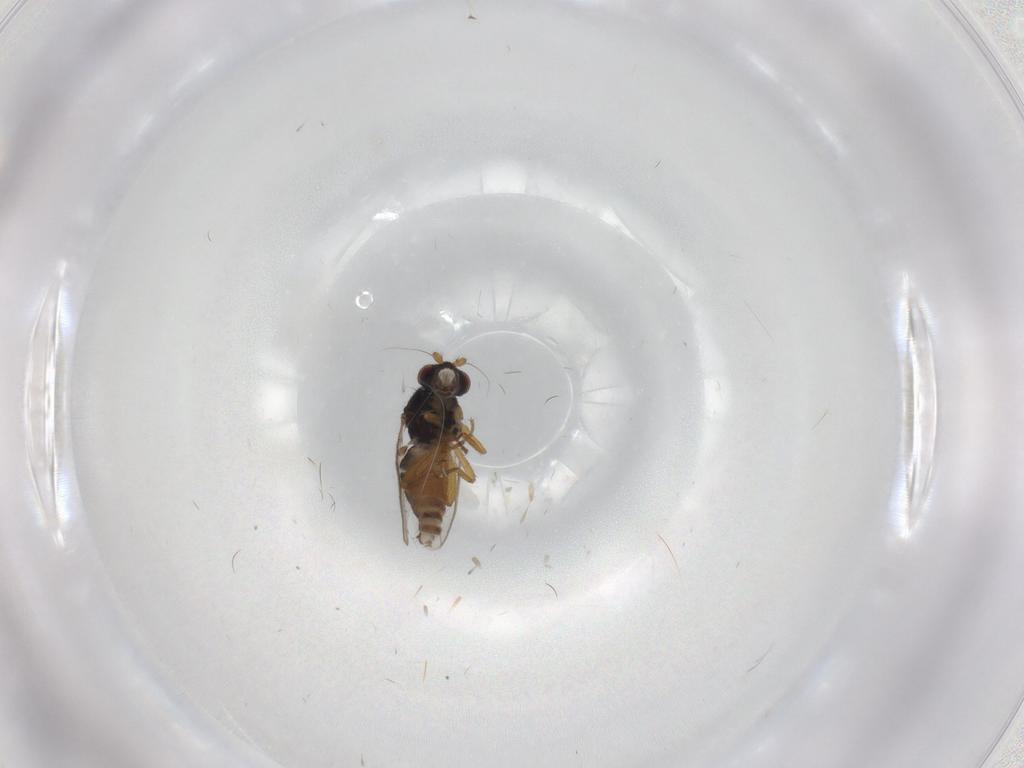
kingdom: Animalia
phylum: Arthropoda
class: Insecta
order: Diptera
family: Sphaeroceridae
